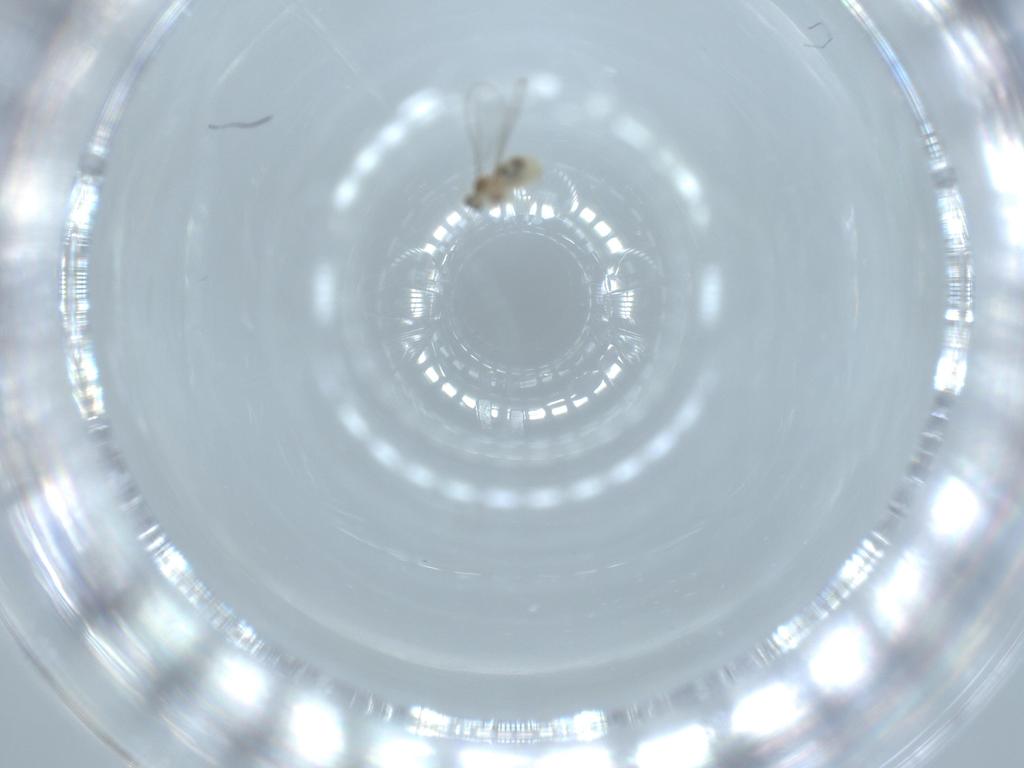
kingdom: Animalia
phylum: Arthropoda
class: Insecta
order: Diptera
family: Cecidomyiidae
